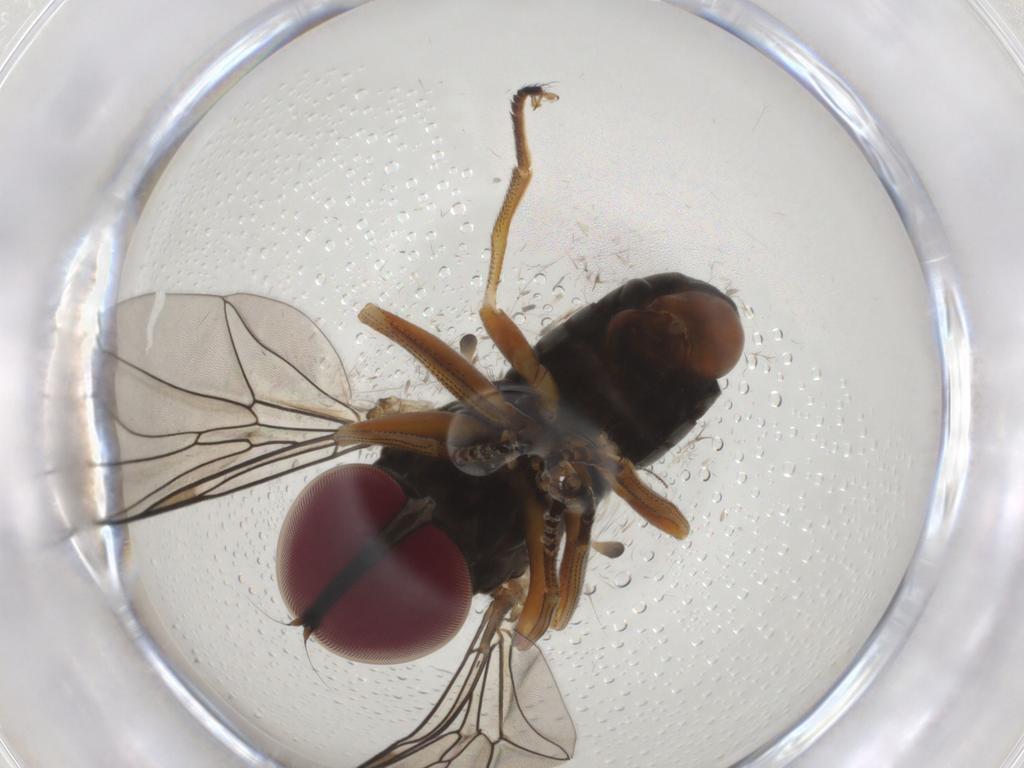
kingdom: Animalia
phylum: Arthropoda
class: Insecta
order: Diptera
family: Pipunculidae
